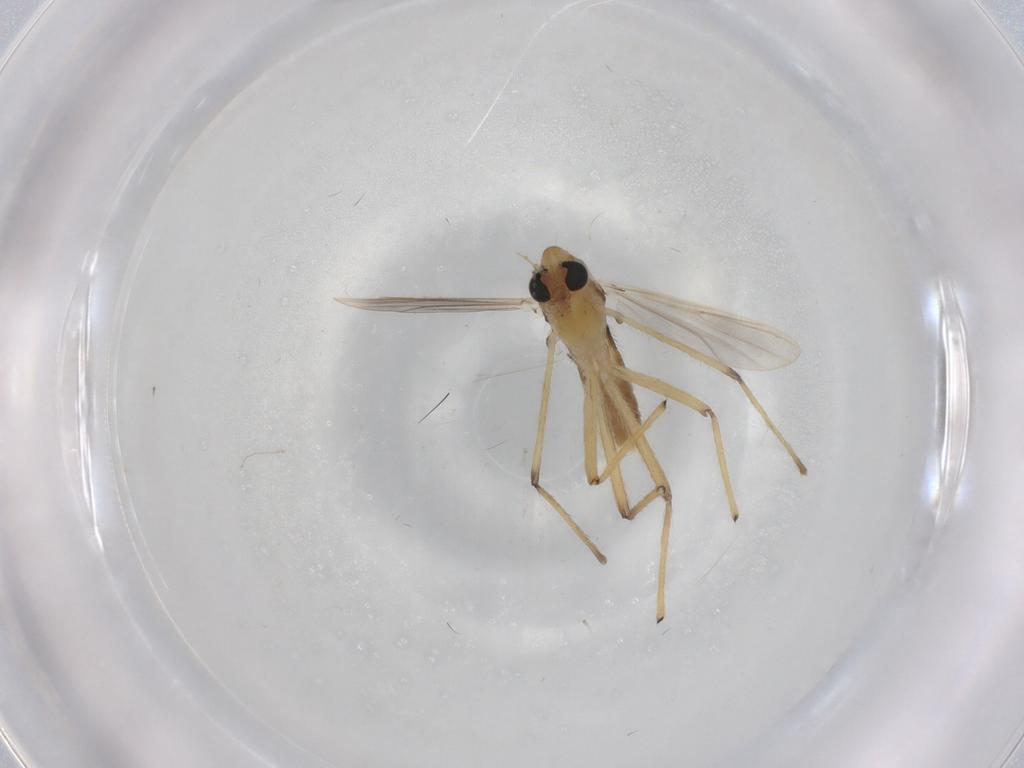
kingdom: Animalia
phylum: Arthropoda
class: Insecta
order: Diptera
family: Chironomidae
